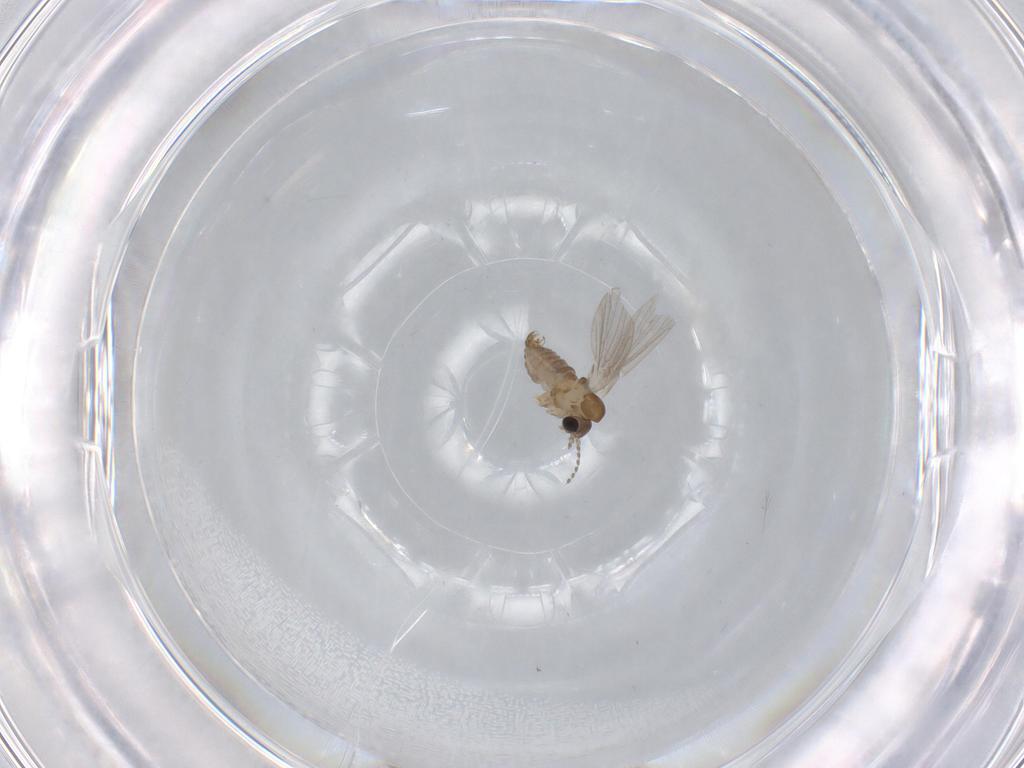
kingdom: Animalia
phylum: Arthropoda
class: Insecta
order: Diptera
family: Psychodidae
